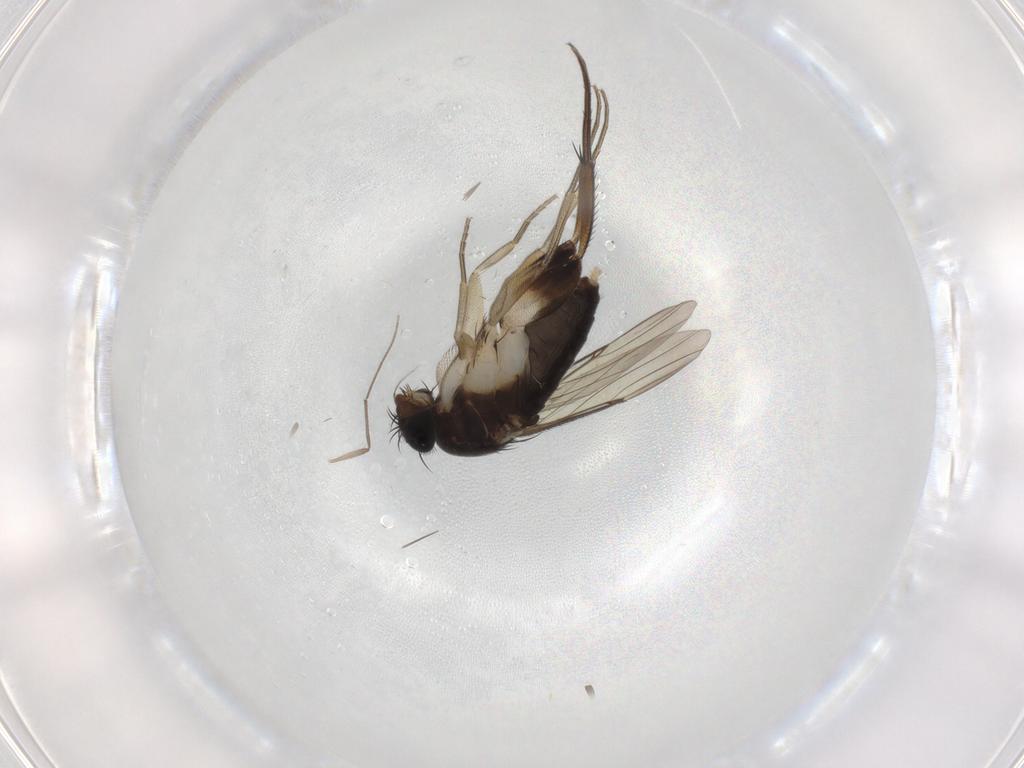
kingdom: Animalia
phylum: Arthropoda
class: Insecta
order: Diptera
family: Phoridae
